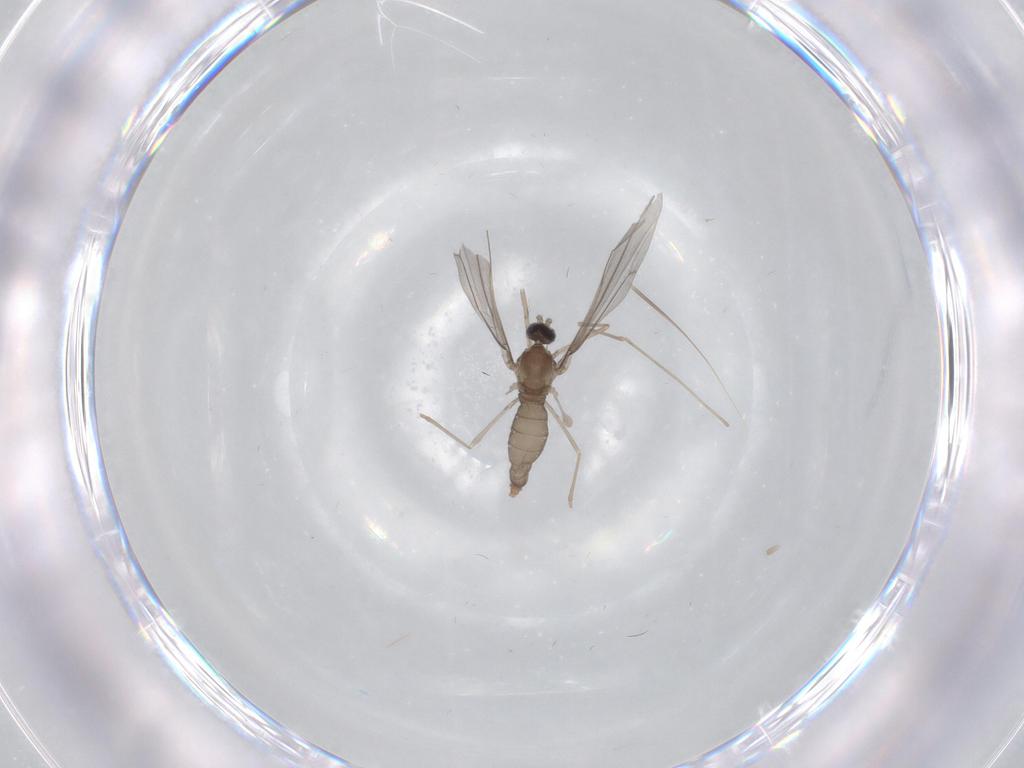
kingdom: Animalia
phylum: Arthropoda
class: Insecta
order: Diptera
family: Cecidomyiidae
